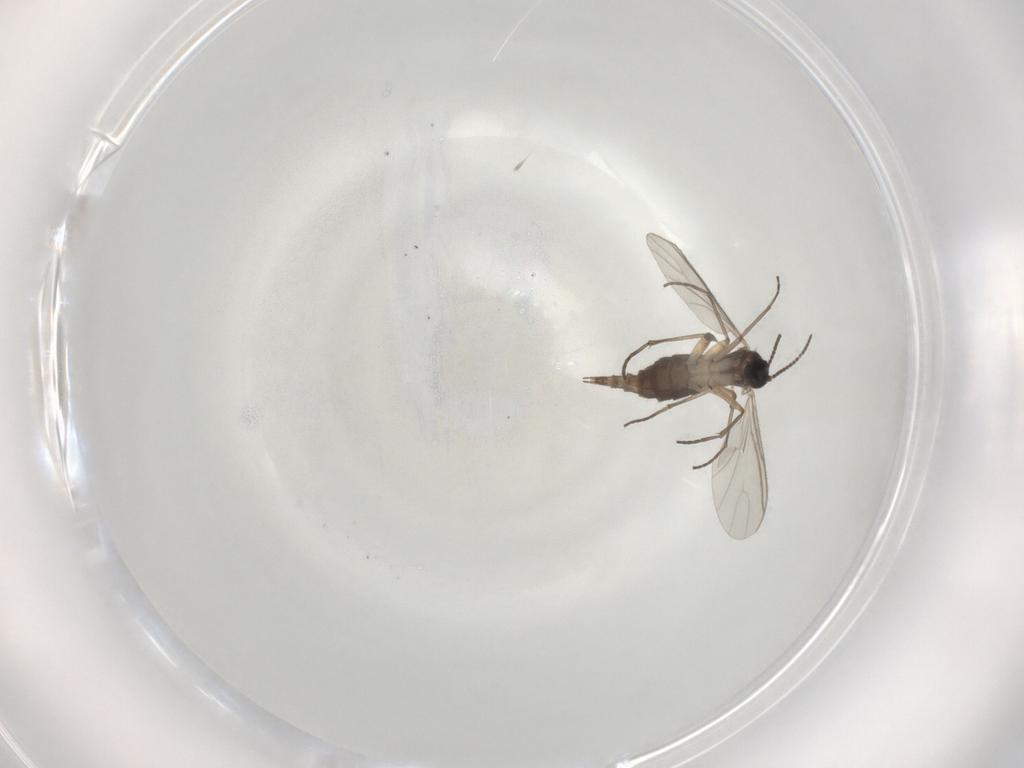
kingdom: Animalia
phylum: Arthropoda
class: Insecta
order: Diptera
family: Sciaridae
